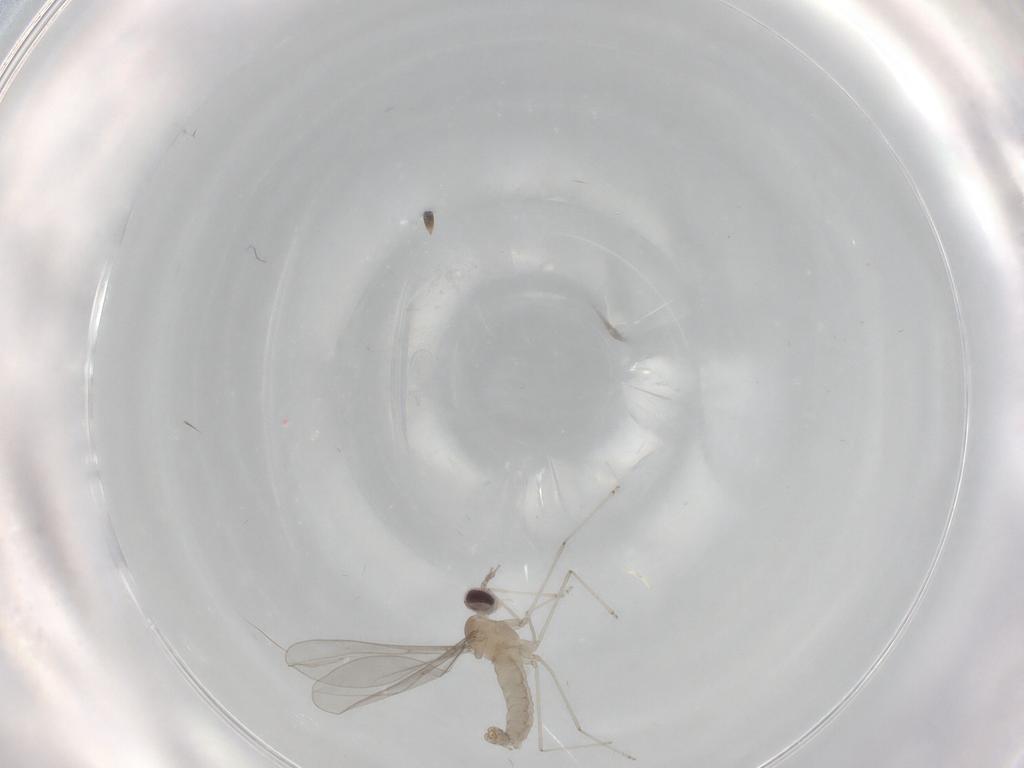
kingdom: Animalia
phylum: Arthropoda
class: Insecta
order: Diptera
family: Cecidomyiidae
